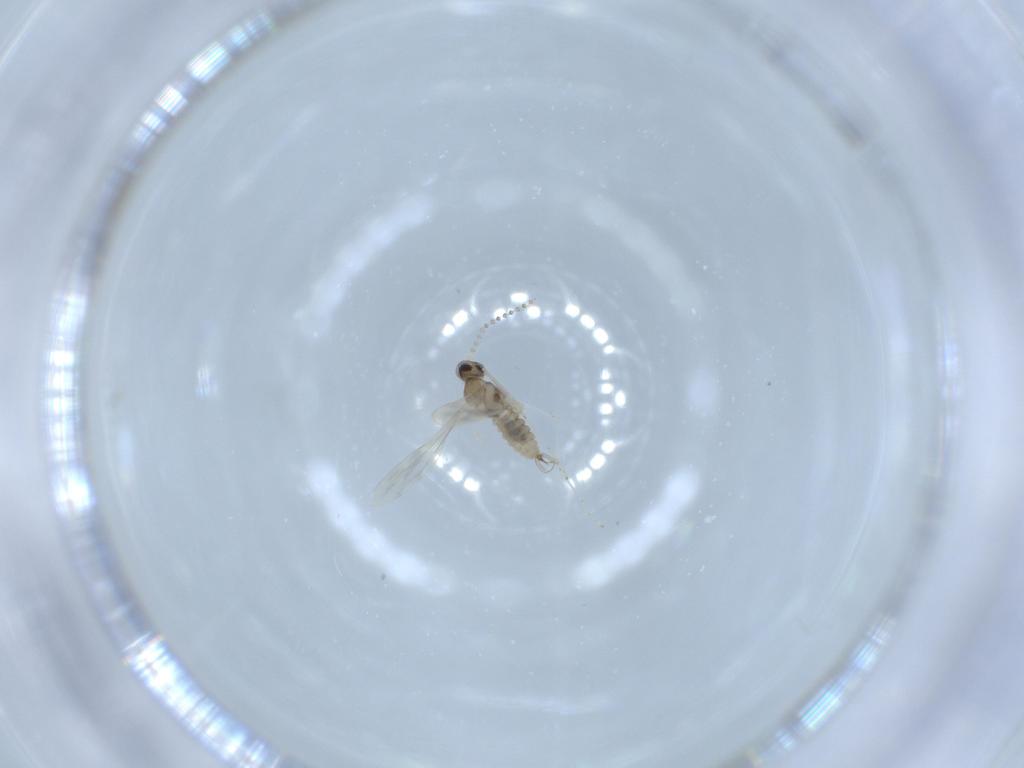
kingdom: Animalia
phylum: Arthropoda
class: Insecta
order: Diptera
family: Cecidomyiidae
